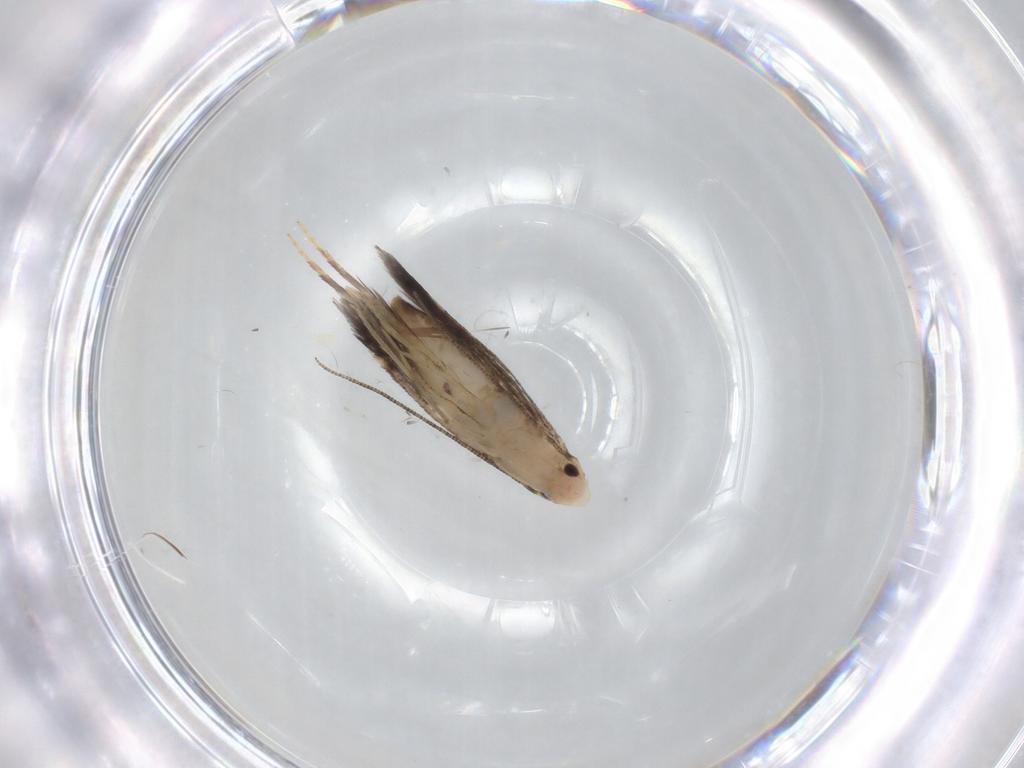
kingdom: Animalia
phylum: Arthropoda
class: Insecta
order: Lepidoptera
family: Nepticulidae
